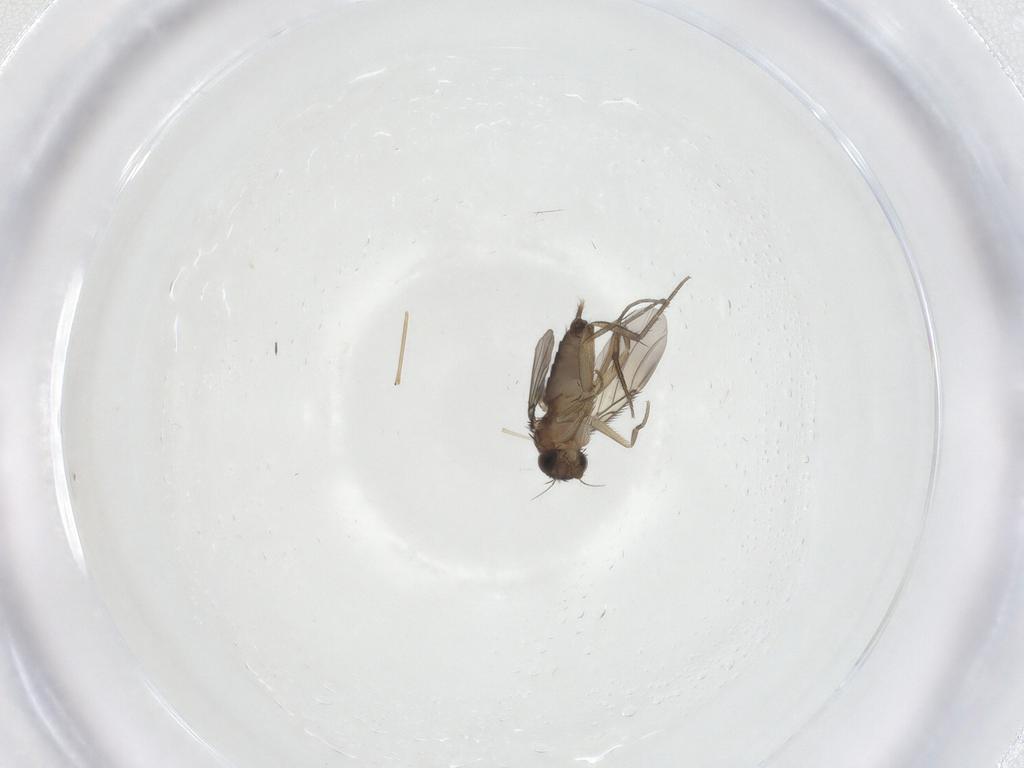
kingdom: Animalia
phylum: Arthropoda
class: Insecta
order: Diptera
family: Phoridae
